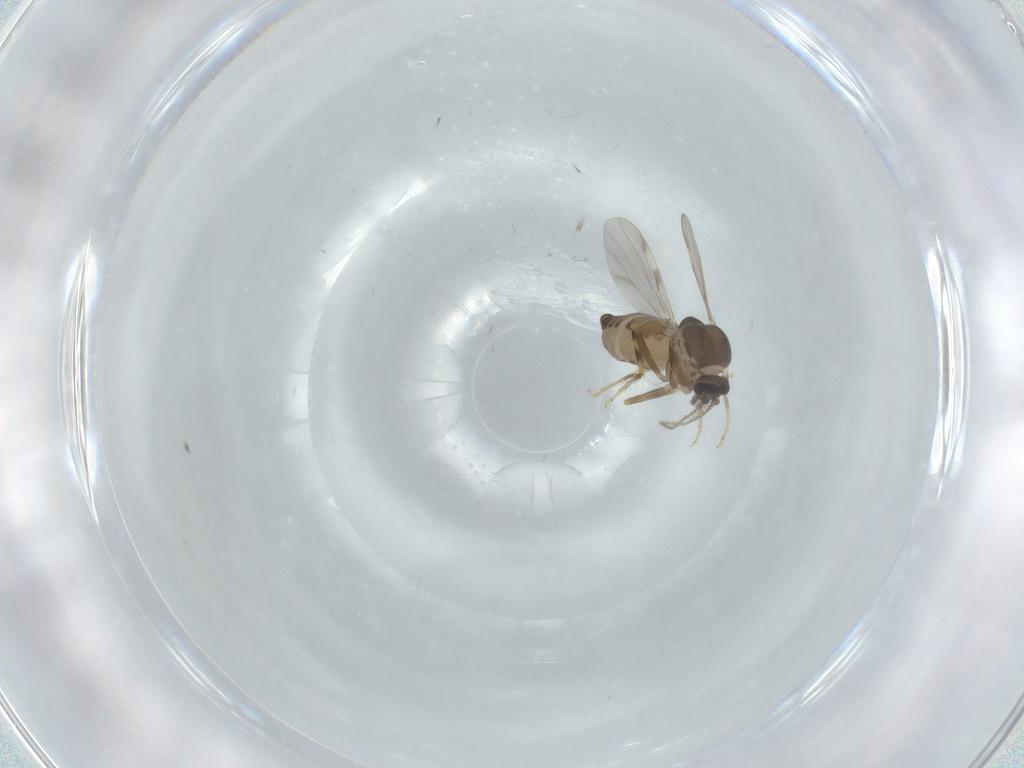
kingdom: Animalia
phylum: Arthropoda
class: Insecta
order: Diptera
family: Ceratopogonidae
